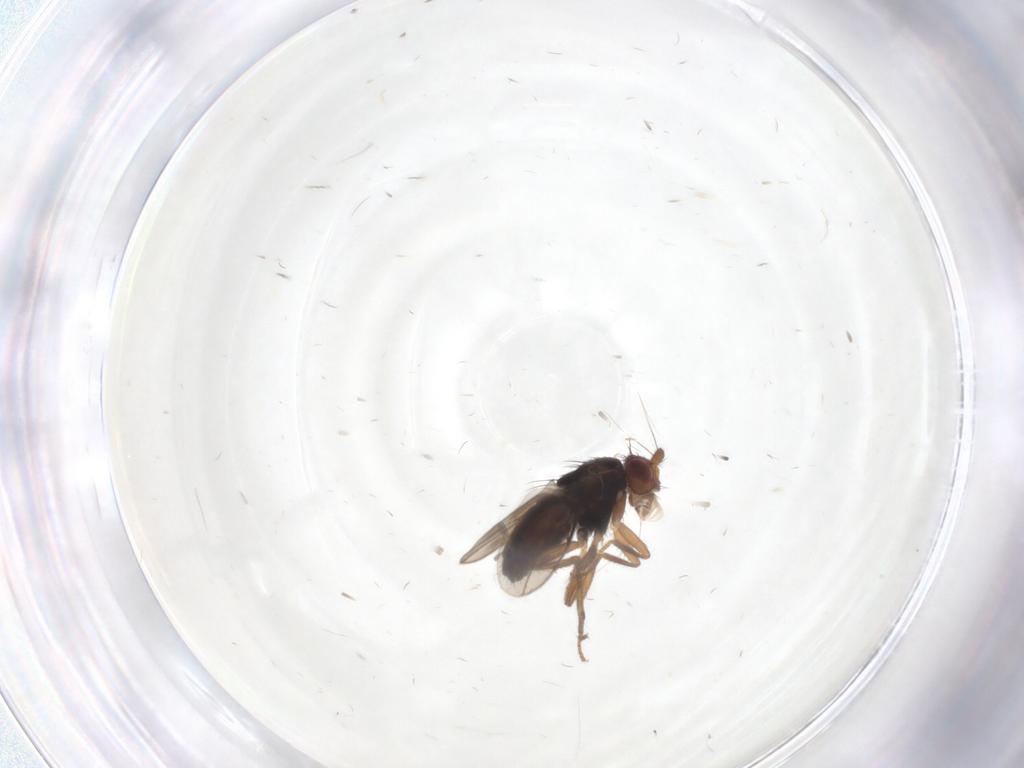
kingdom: Animalia
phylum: Arthropoda
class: Insecta
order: Diptera
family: Sphaeroceridae
